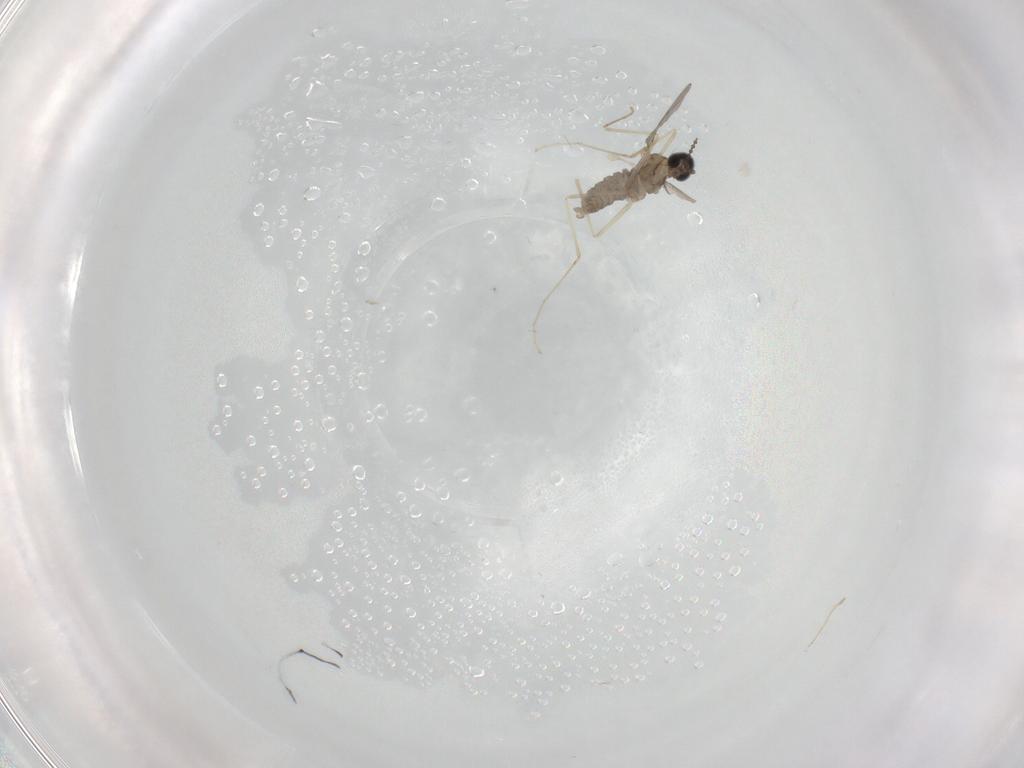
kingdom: Animalia
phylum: Arthropoda
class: Insecta
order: Diptera
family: Cecidomyiidae
